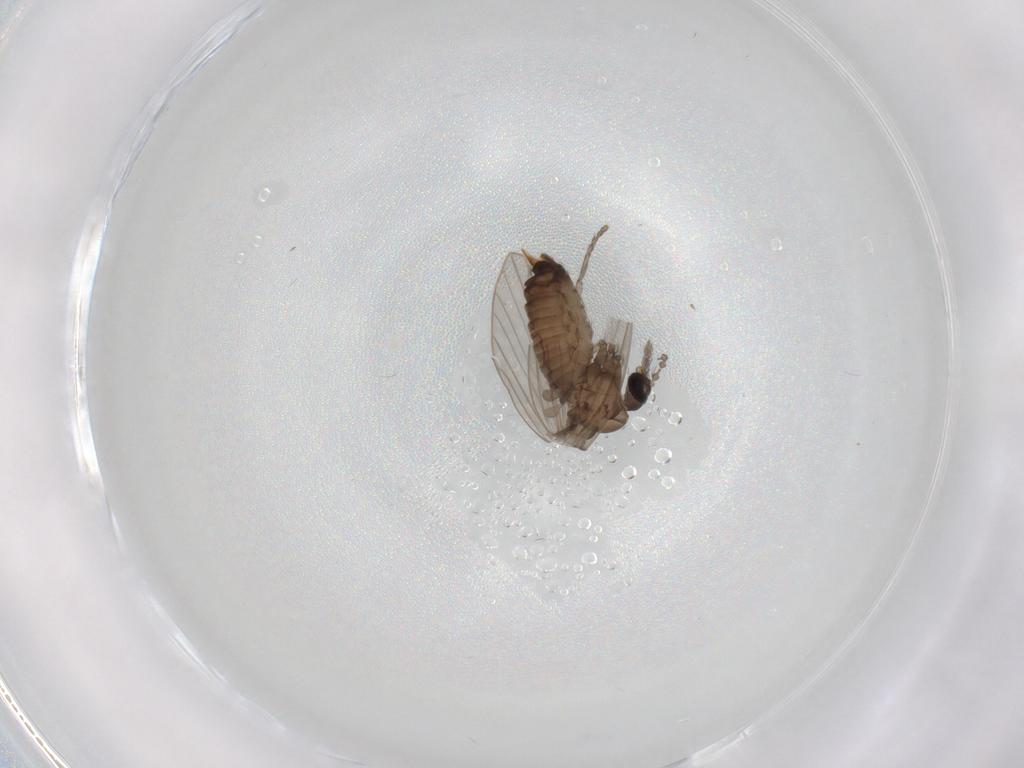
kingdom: Animalia
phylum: Arthropoda
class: Insecta
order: Diptera
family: Psychodidae
